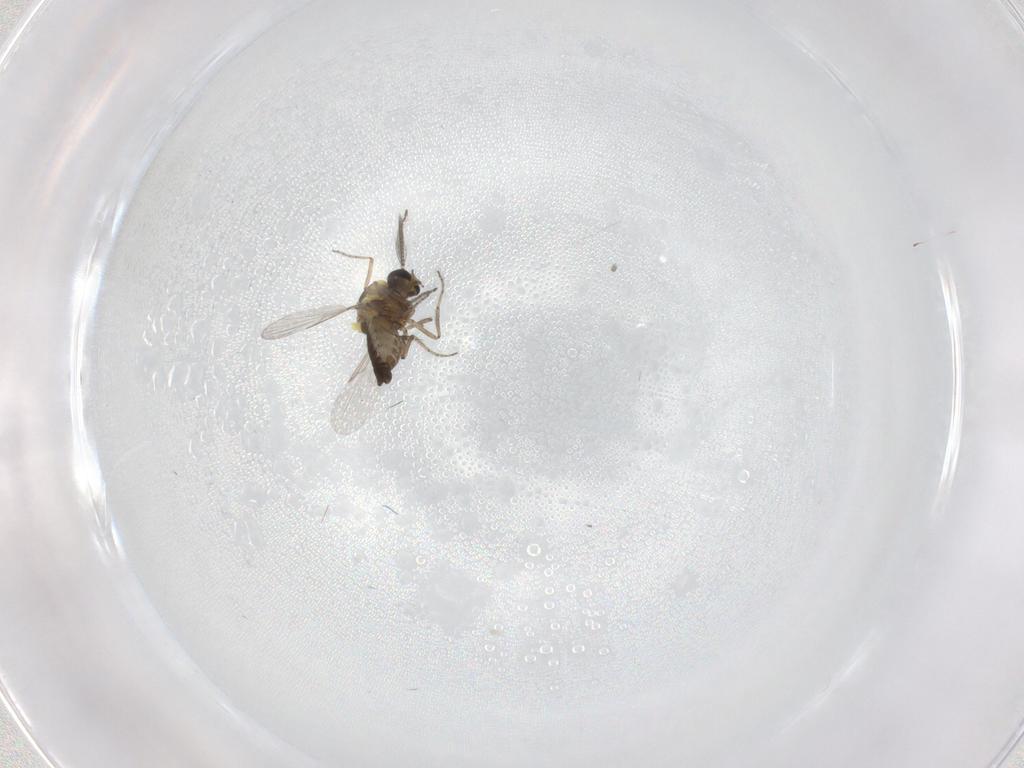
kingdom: Animalia
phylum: Arthropoda
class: Insecta
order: Diptera
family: Ceratopogonidae
